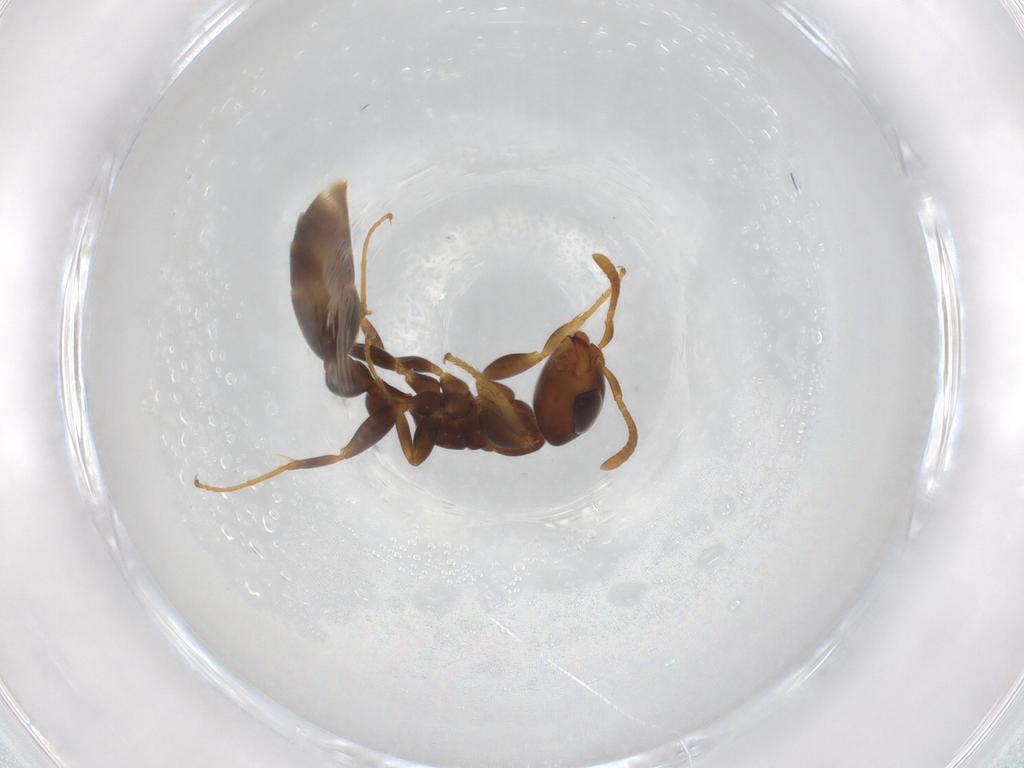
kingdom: Animalia
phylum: Arthropoda
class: Insecta
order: Hymenoptera
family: Formicidae
